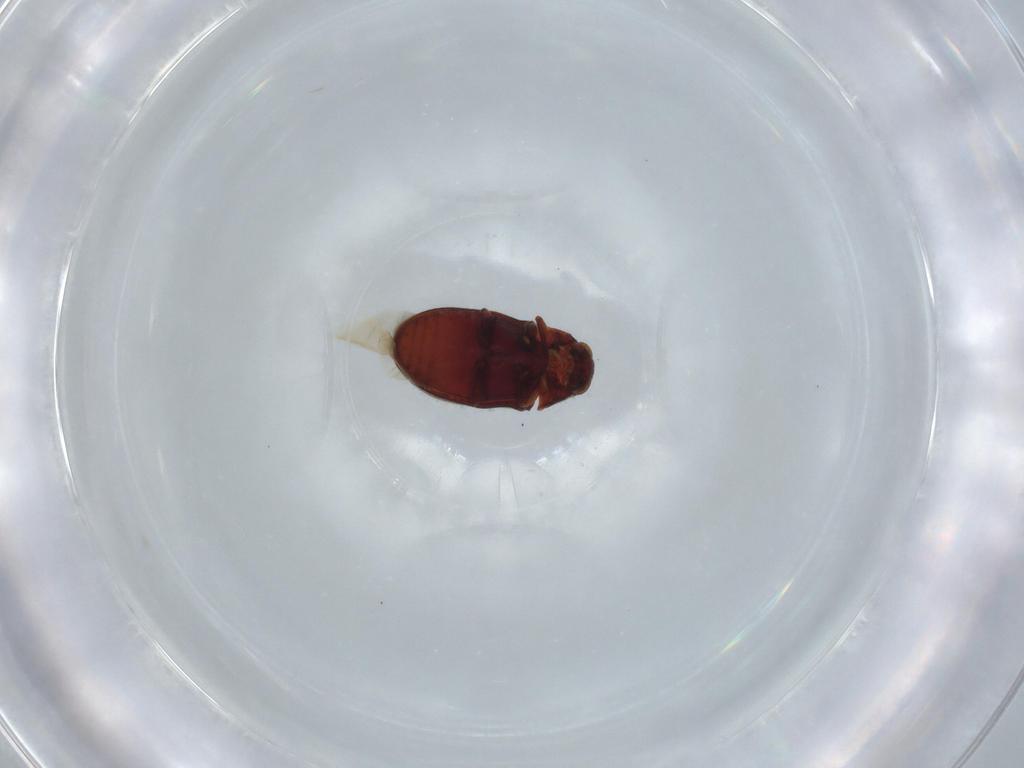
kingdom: Animalia
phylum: Arthropoda
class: Insecta
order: Coleoptera
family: Ptinidae
